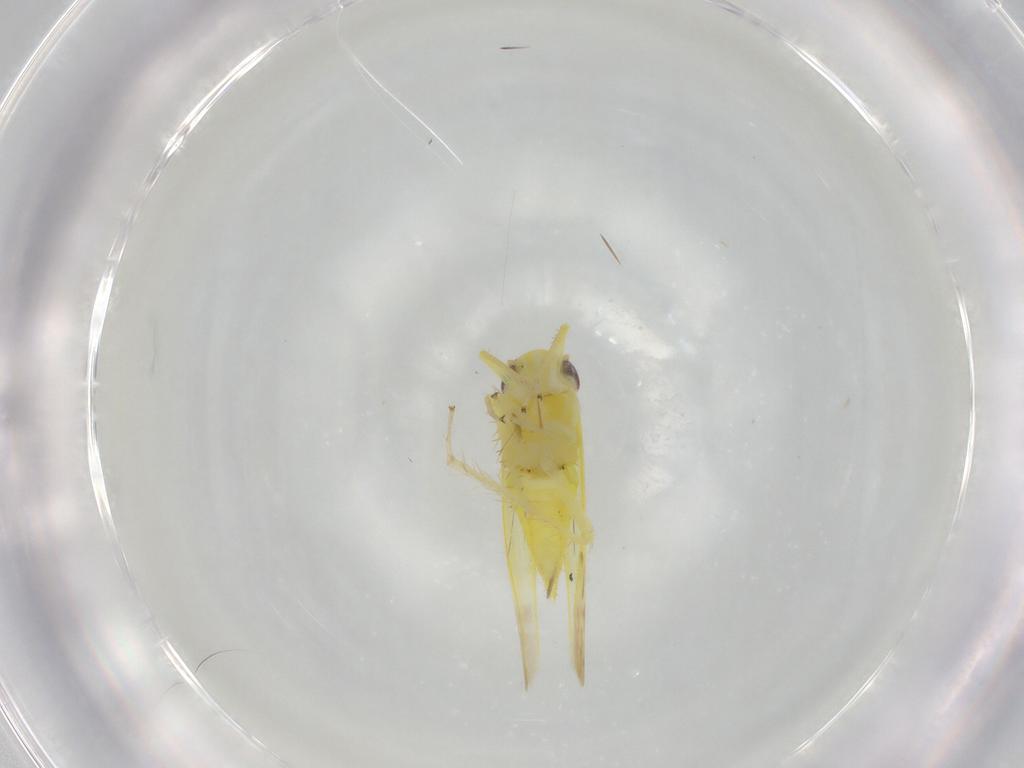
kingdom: Animalia
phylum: Arthropoda
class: Insecta
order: Hemiptera
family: Cicadellidae
